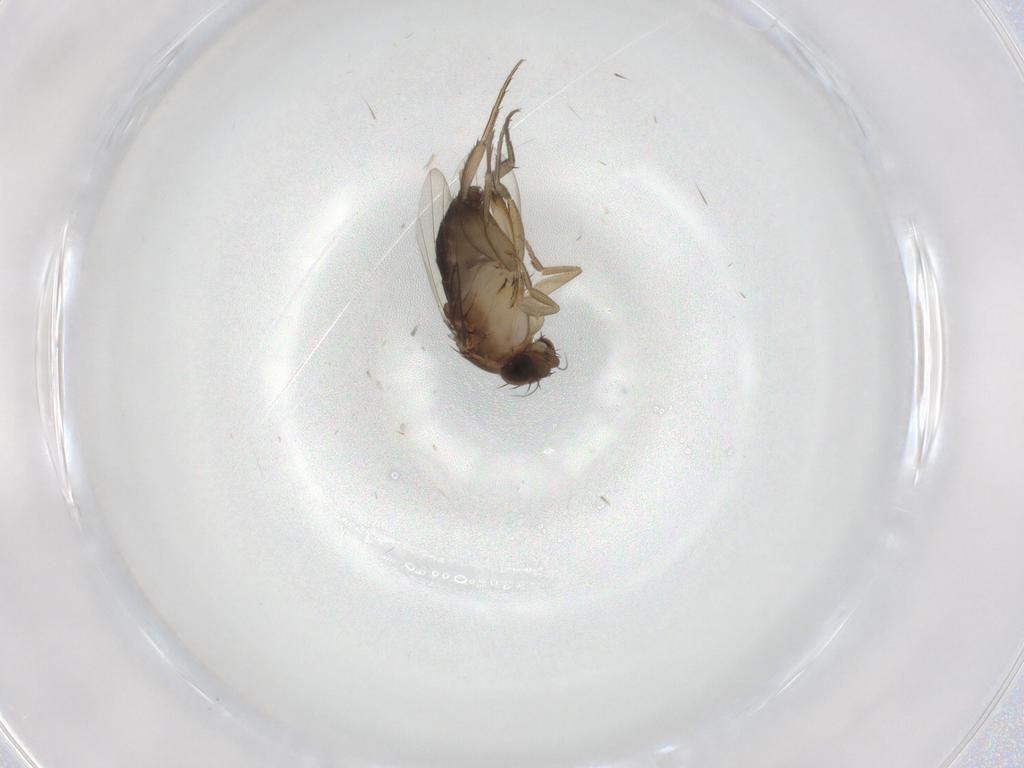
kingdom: Animalia
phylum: Arthropoda
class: Insecta
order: Diptera
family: Phoridae
